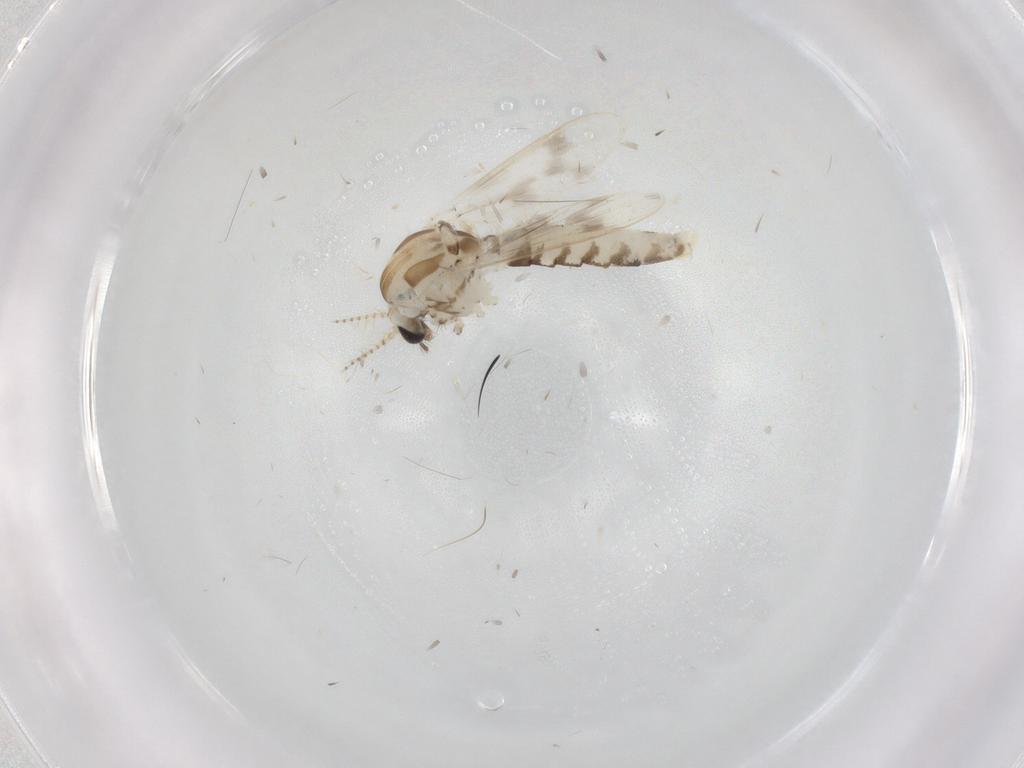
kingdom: Animalia
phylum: Arthropoda
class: Insecta
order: Diptera
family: Corethrellidae
